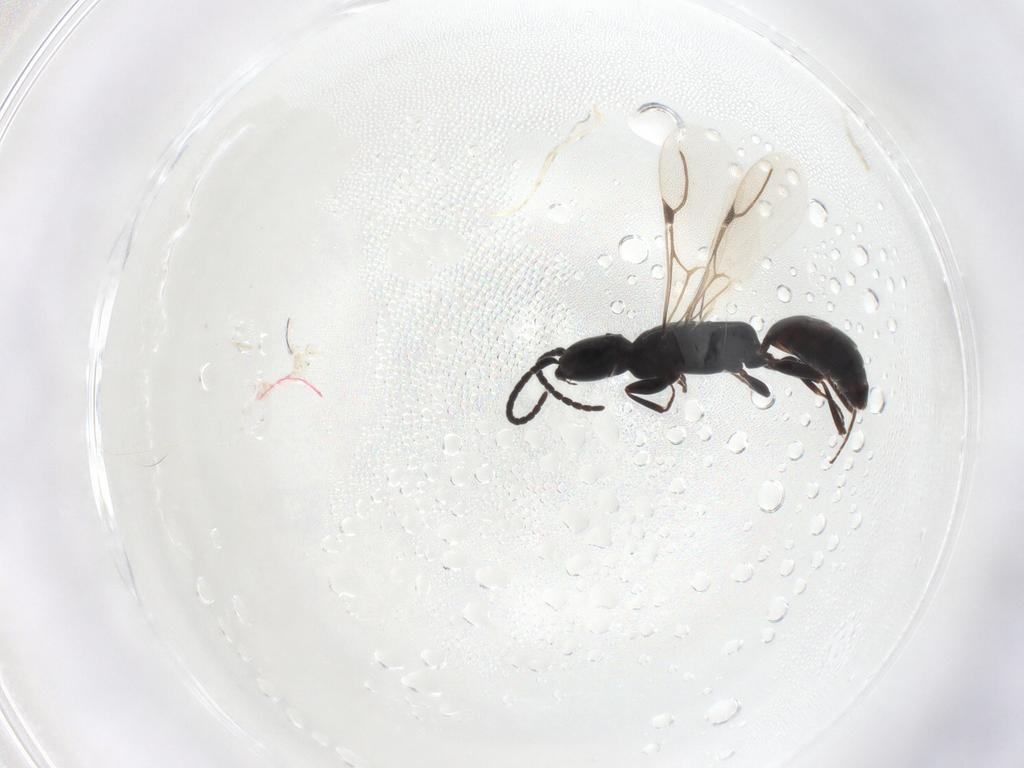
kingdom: Animalia
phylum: Arthropoda
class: Insecta
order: Hymenoptera
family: Bethylidae
